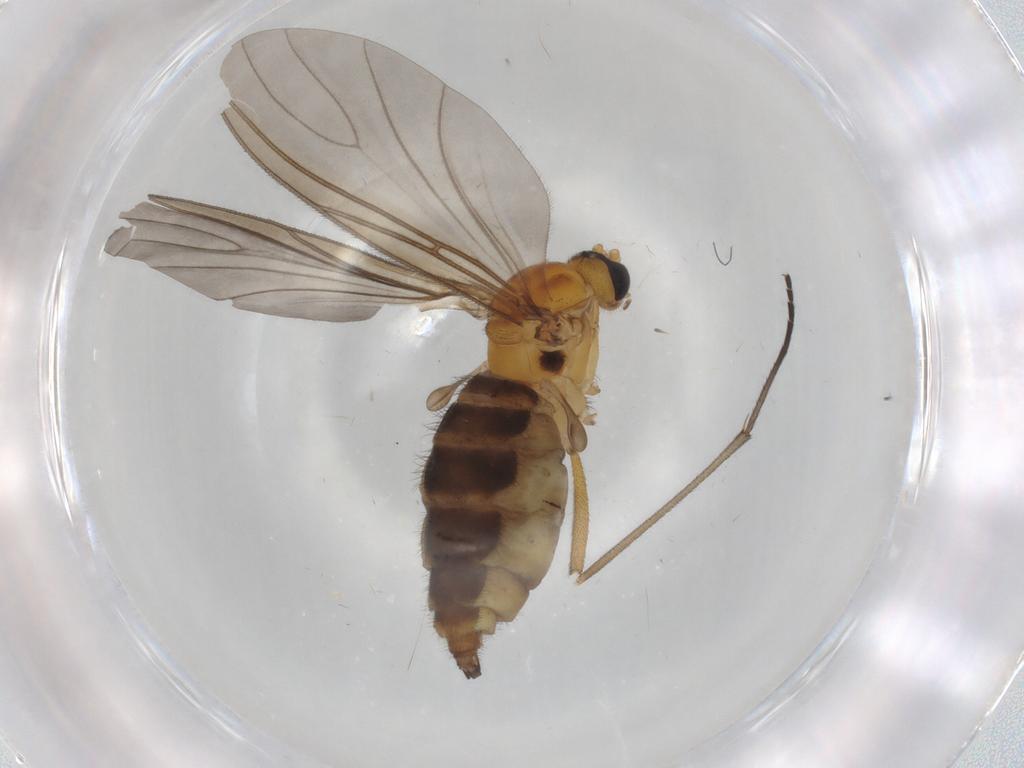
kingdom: Animalia
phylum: Arthropoda
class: Insecta
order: Diptera
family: Sciaridae
